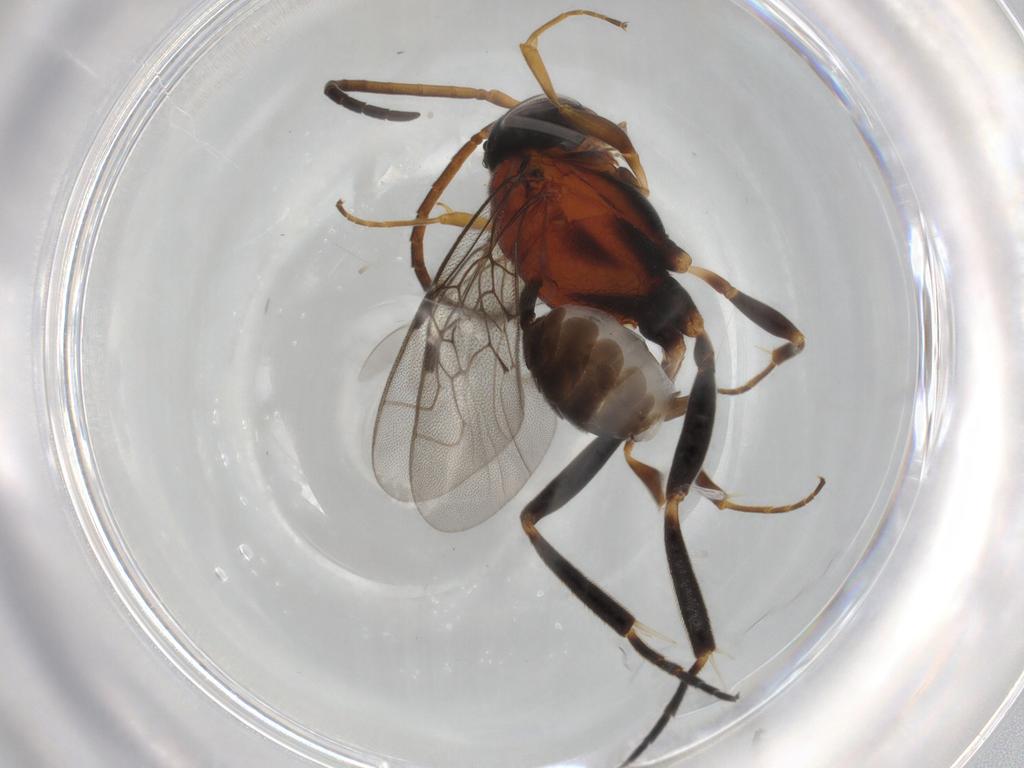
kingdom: Animalia
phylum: Arthropoda
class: Insecta
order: Hymenoptera
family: Evaniidae
